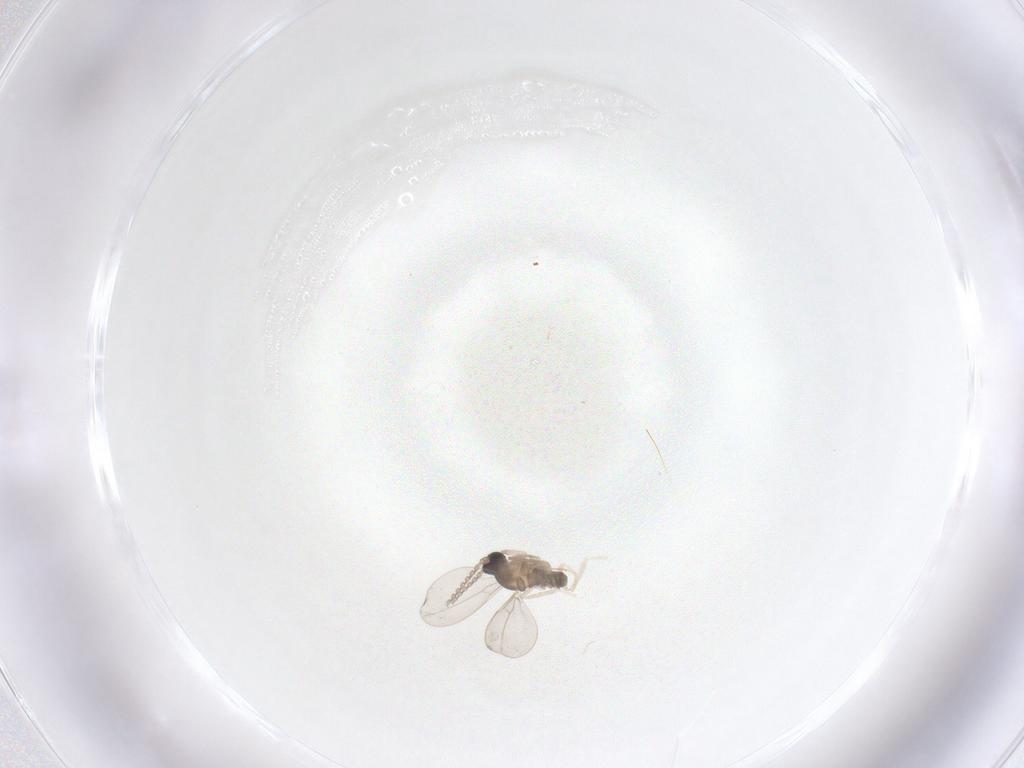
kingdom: Animalia
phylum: Arthropoda
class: Insecta
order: Diptera
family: Cecidomyiidae
